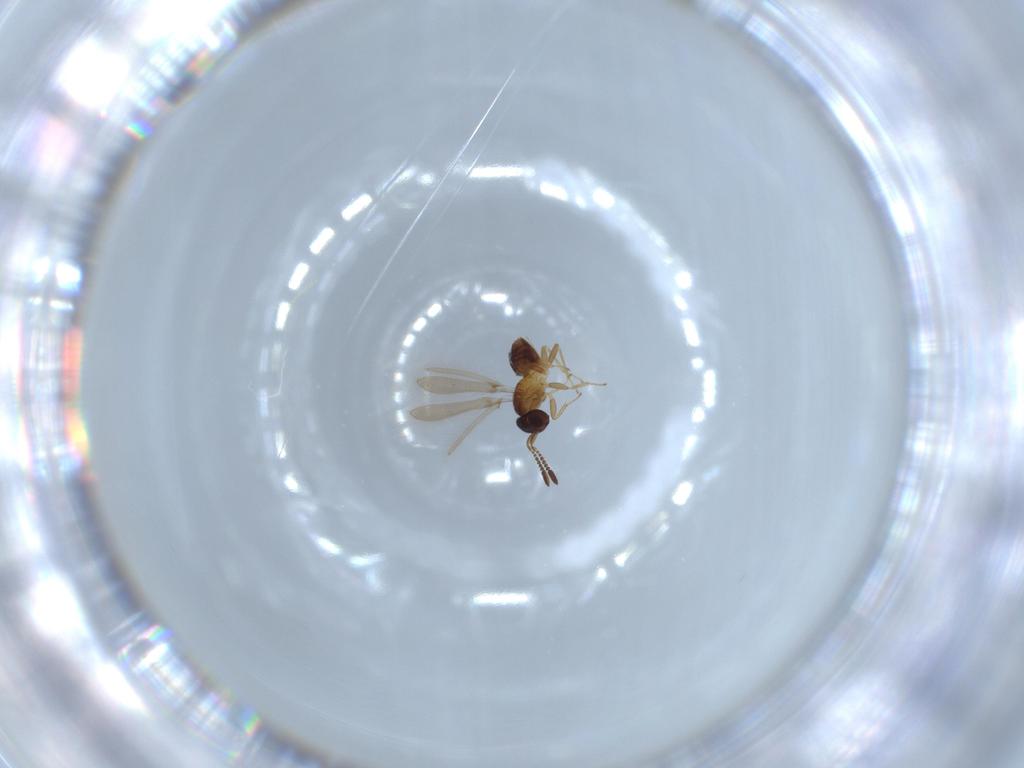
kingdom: Animalia
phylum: Arthropoda
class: Insecta
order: Hymenoptera
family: Mymaridae
